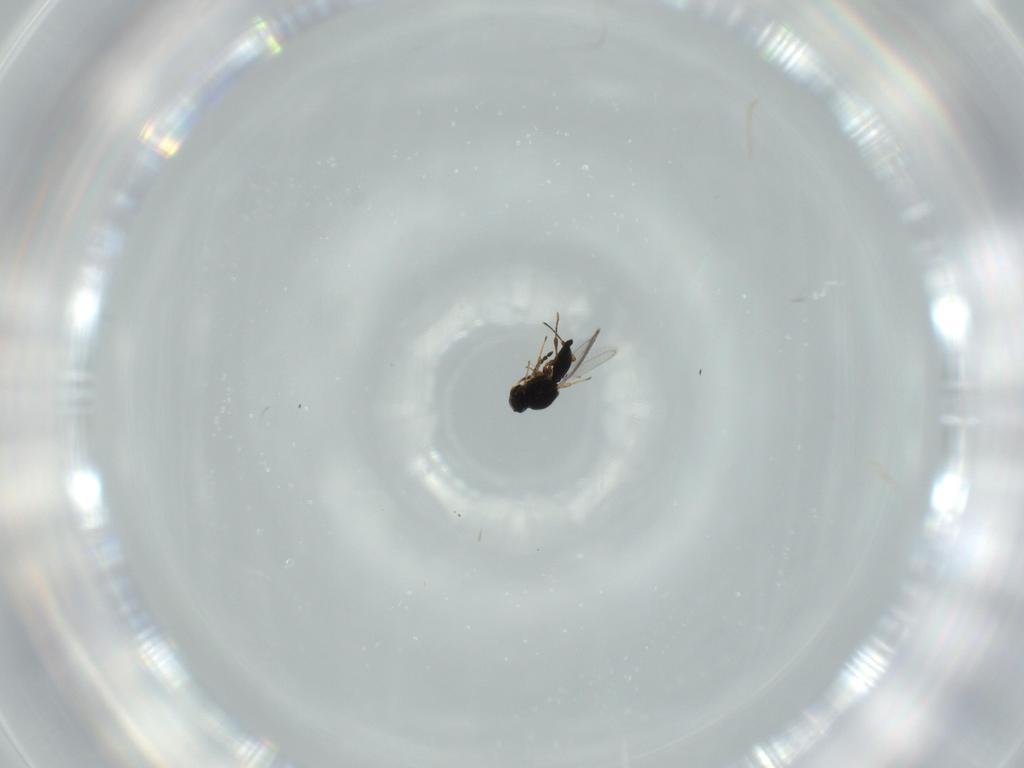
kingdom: Animalia
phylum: Arthropoda
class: Insecta
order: Hymenoptera
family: Platygastridae
